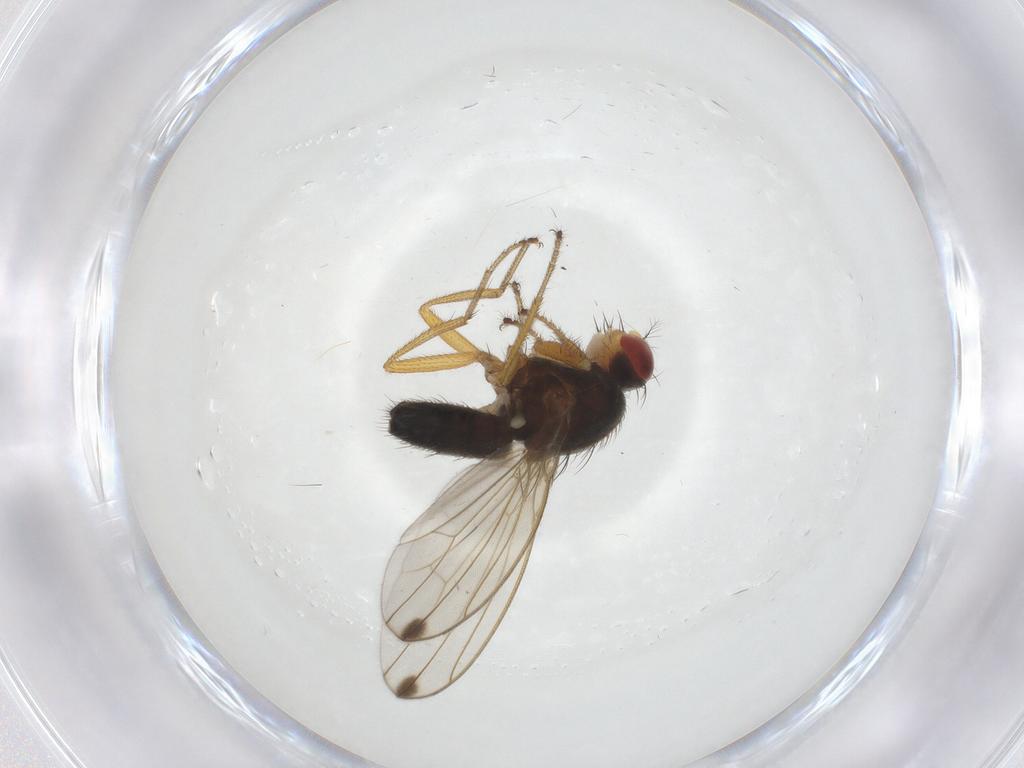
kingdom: Animalia
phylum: Arthropoda
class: Insecta
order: Diptera
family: Drosophilidae
